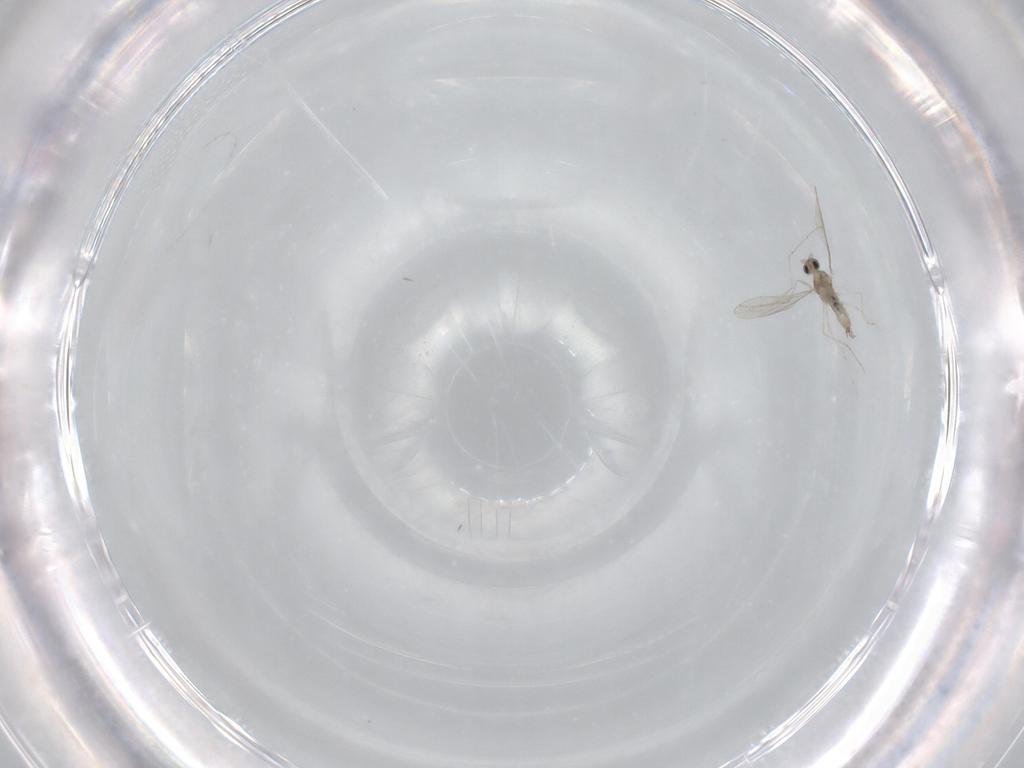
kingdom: Animalia
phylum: Arthropoda
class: Insecta
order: Diptera
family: Cecidomyiidae
